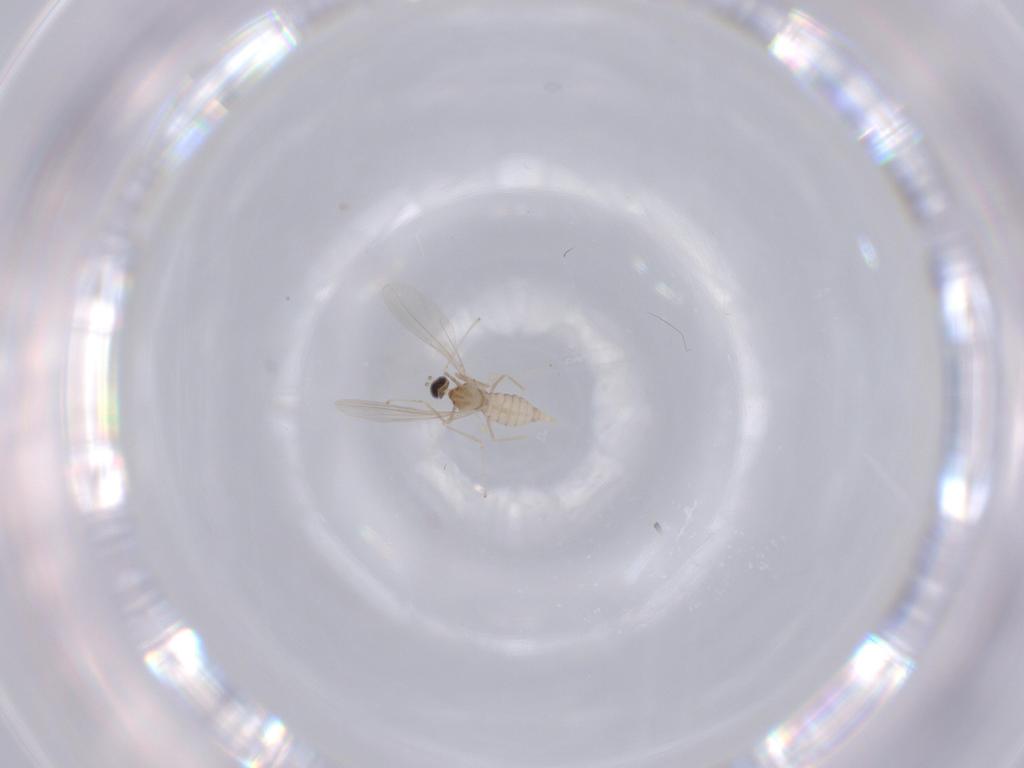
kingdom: Animalia
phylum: Arthropoda
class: Insecta
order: Diptera
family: Cecidomyiidae
